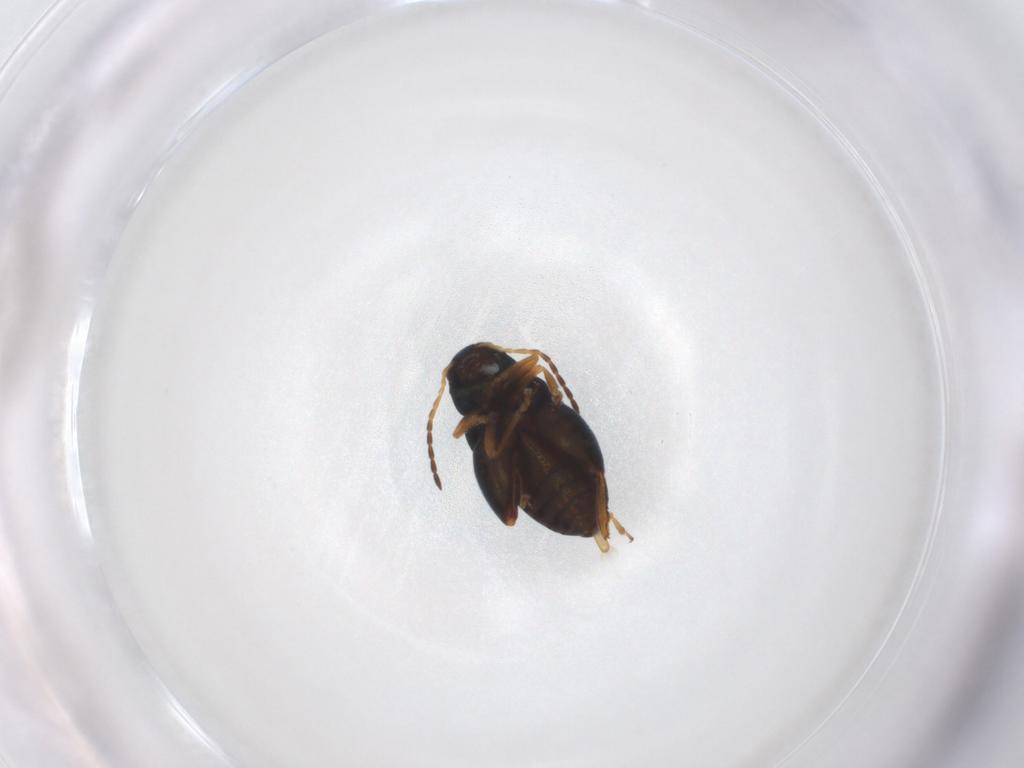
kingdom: Animalia
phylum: Arthropoda
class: Insecta
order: Coleoptera
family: Chrysomelidae
